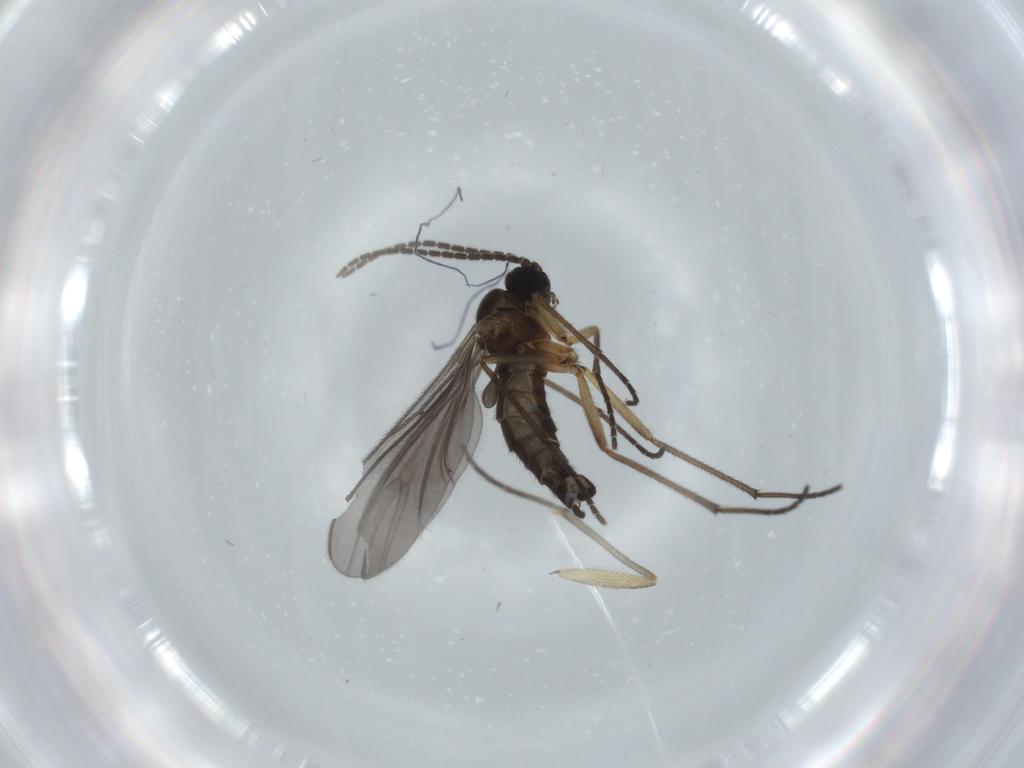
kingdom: Animalia
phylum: Arthropoda
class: Insecta
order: Diptera
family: Sciaridae
